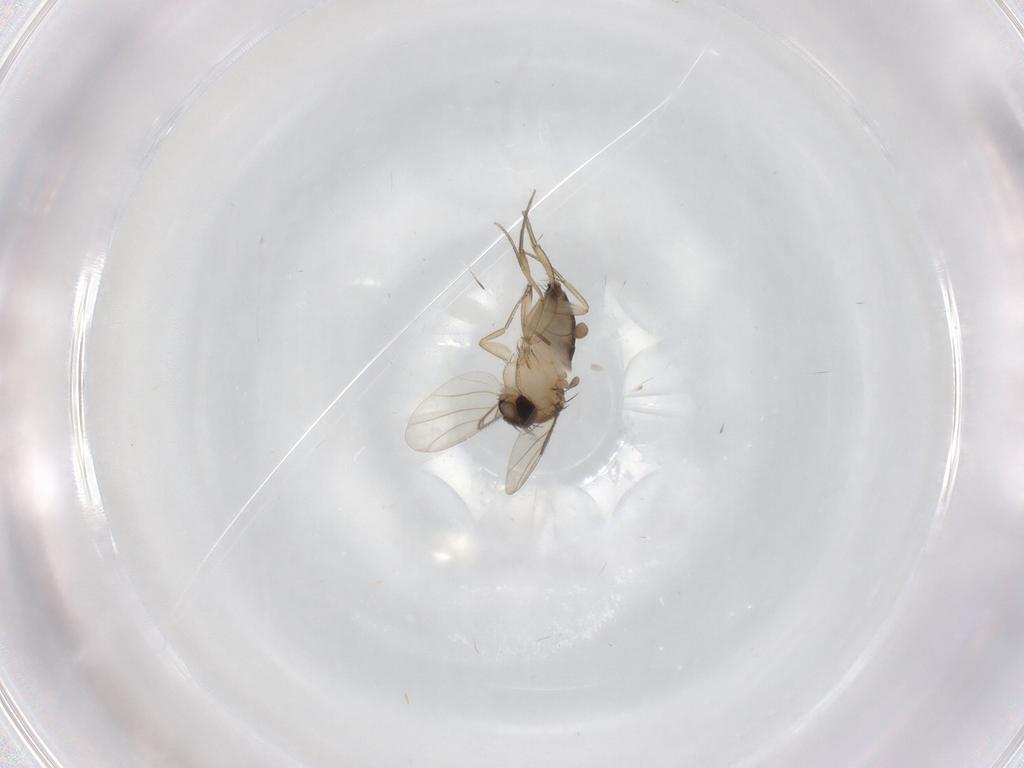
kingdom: Animalia
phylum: Arthropoda
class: Insecta
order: Diptera
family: Phoridae
